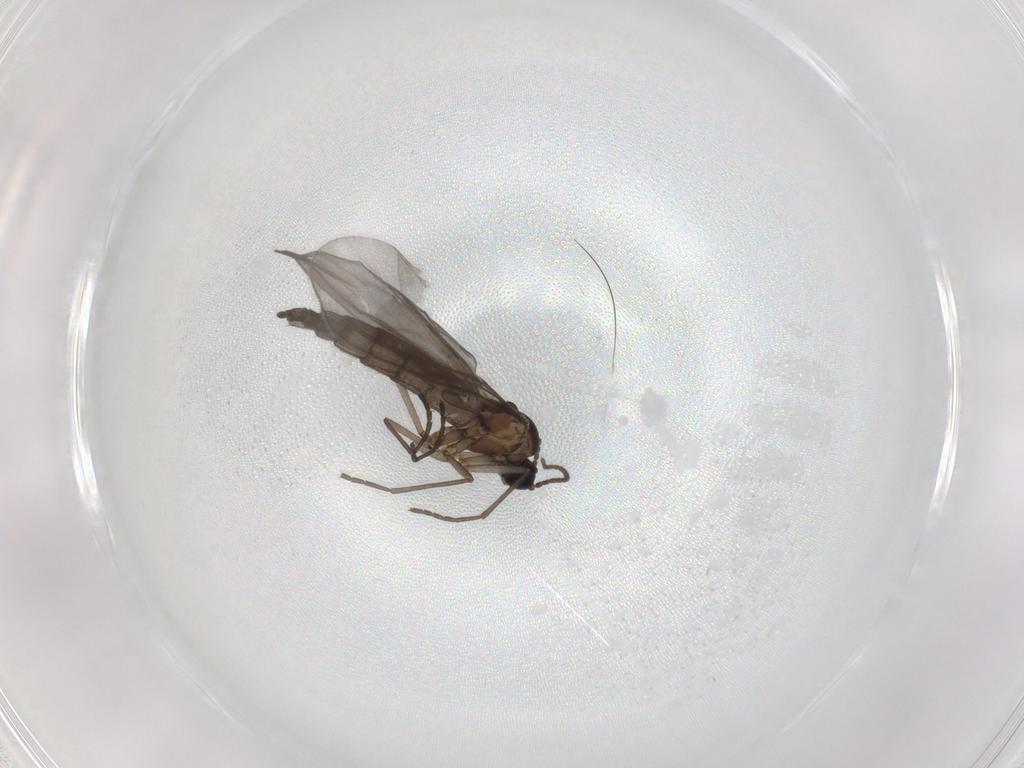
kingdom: Animalia
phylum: Arthropoda
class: Insecta
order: Diptera
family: Sciaridae
